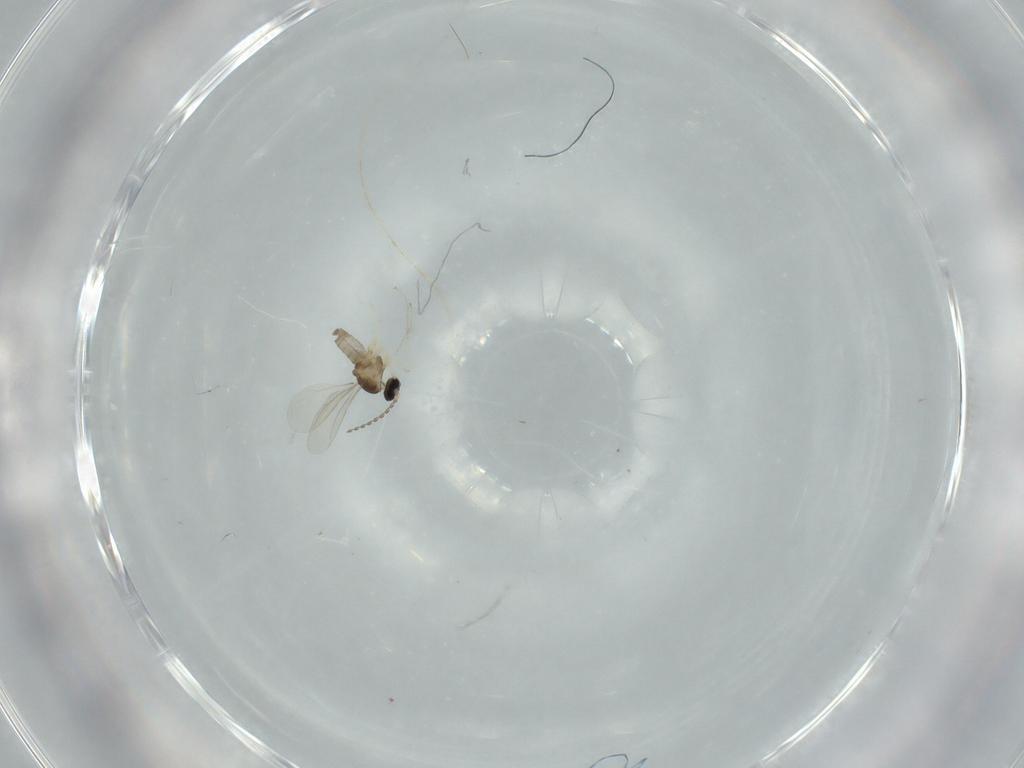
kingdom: Animalia
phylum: Arthropoda
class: Insecta
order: Diptera
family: Cecidomyiidae
